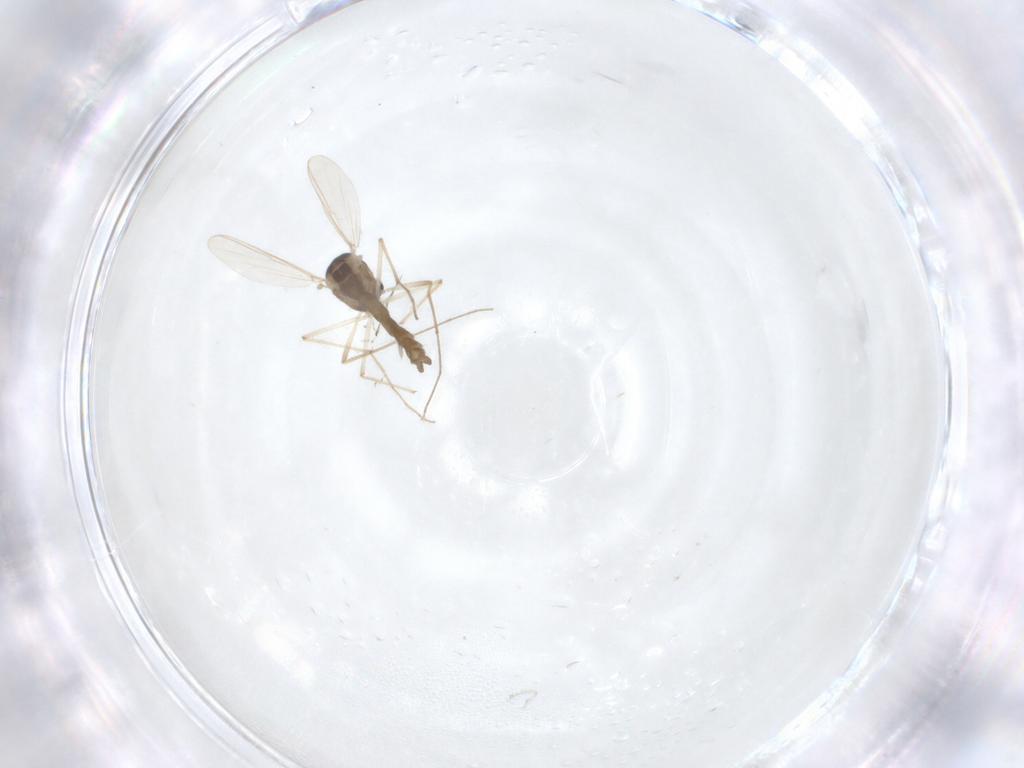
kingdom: Animalia
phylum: Arthropoda
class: Insecta
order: Diptera
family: Chironomidae
